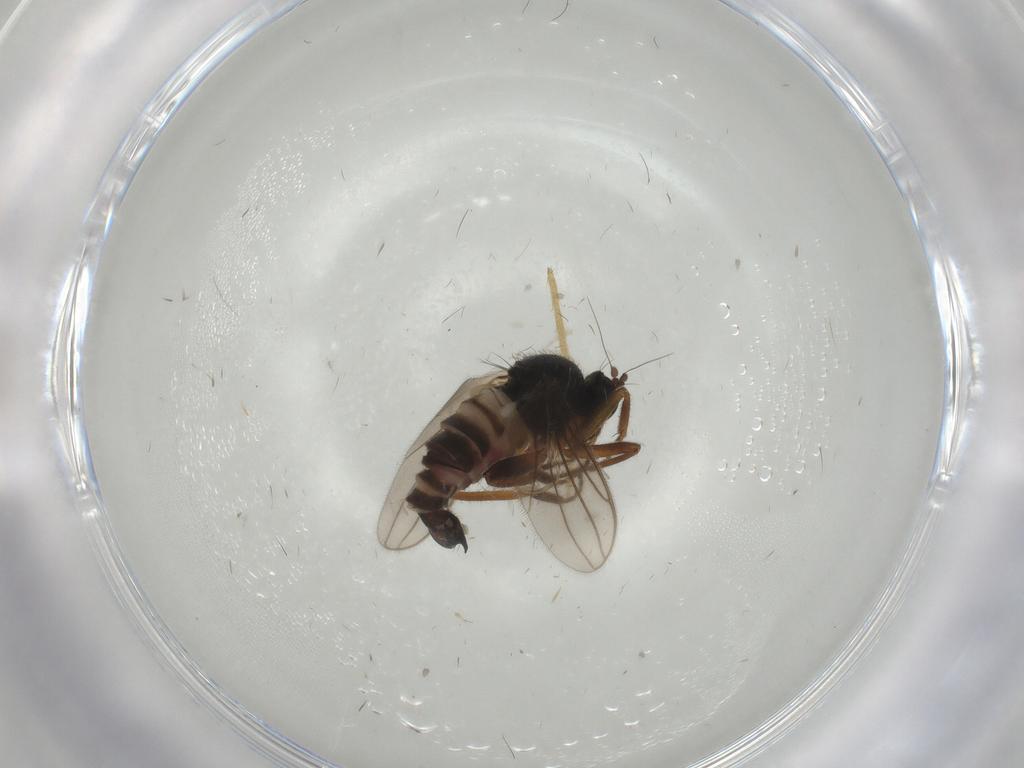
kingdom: Animalia
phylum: Arthropoda
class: Insecta
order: Diptera
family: Hybotidae
